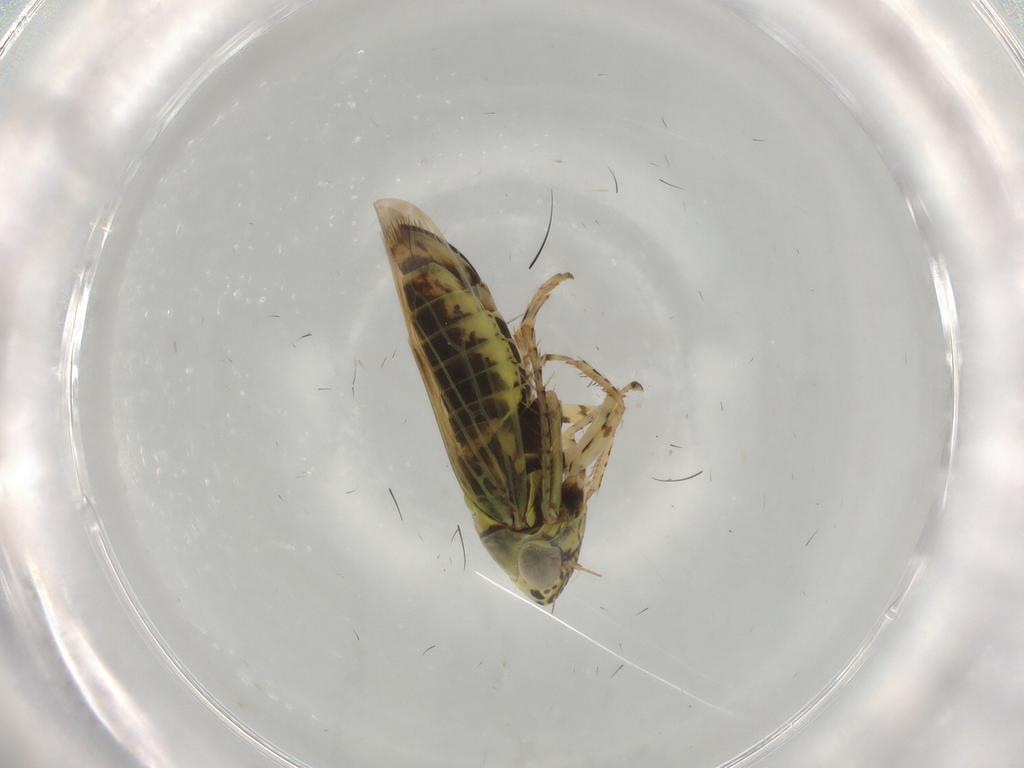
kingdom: Animalia
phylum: Arthropoda
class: Insecta
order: Hemiptera
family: Cicadellidae
